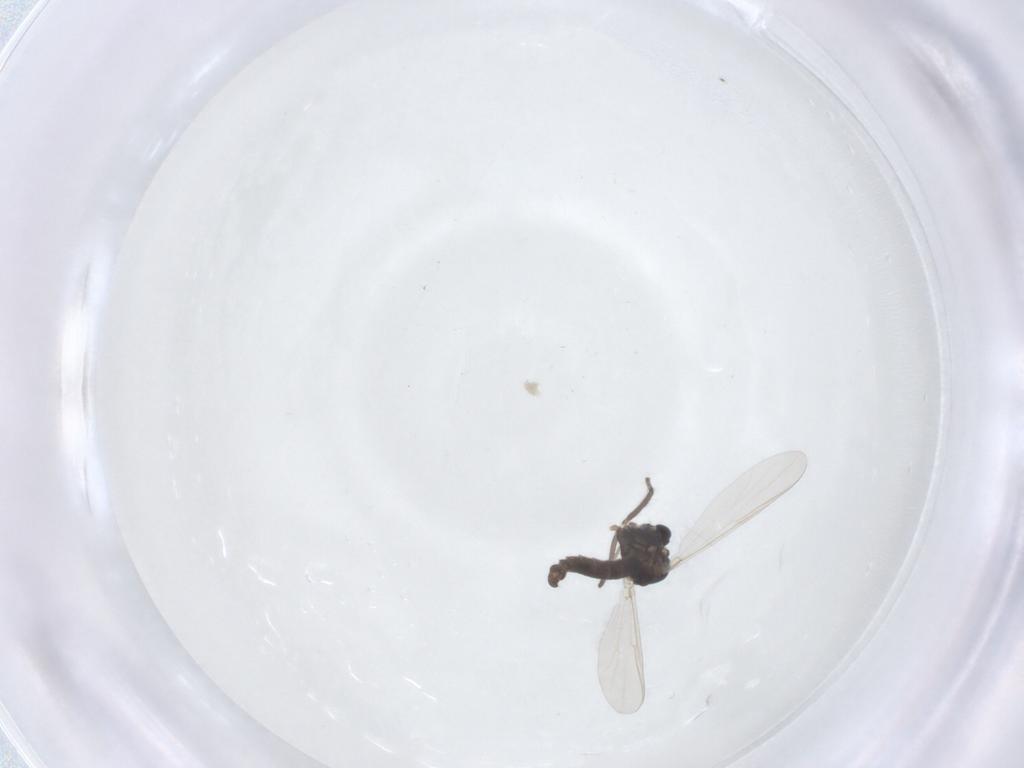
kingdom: Animalia
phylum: Arthropoda
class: Insecta
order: Diptera
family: Chironomidae
